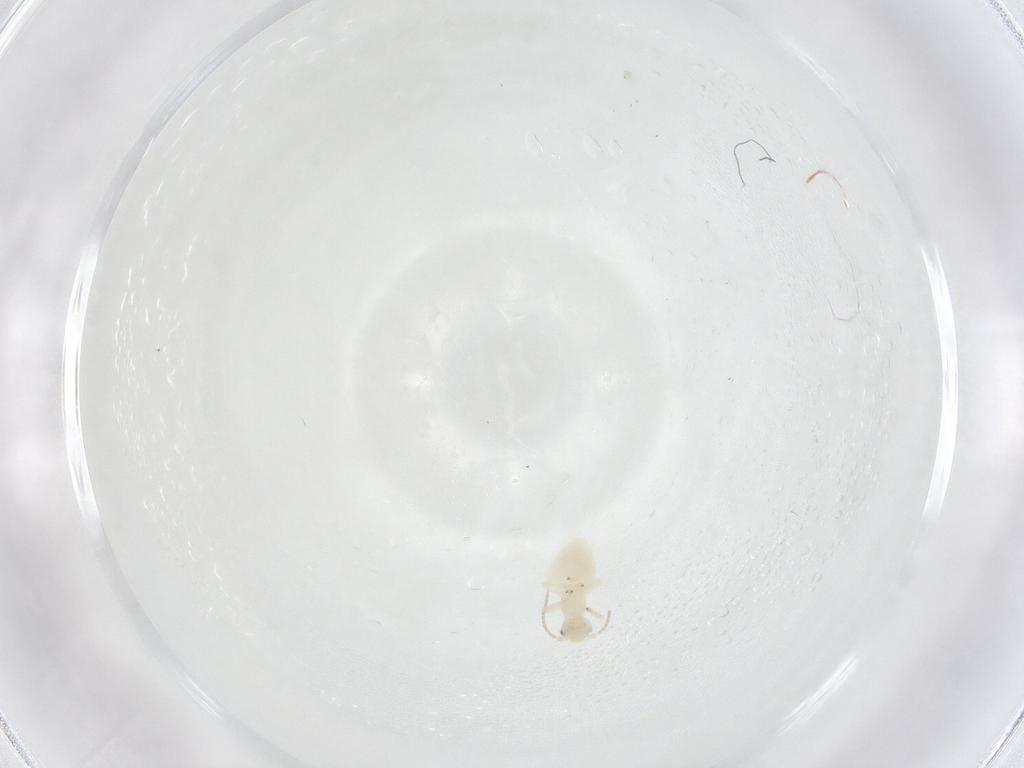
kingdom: Animalia
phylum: Arthropoda
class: Insecta
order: Psocodea
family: Caeciliusidae
